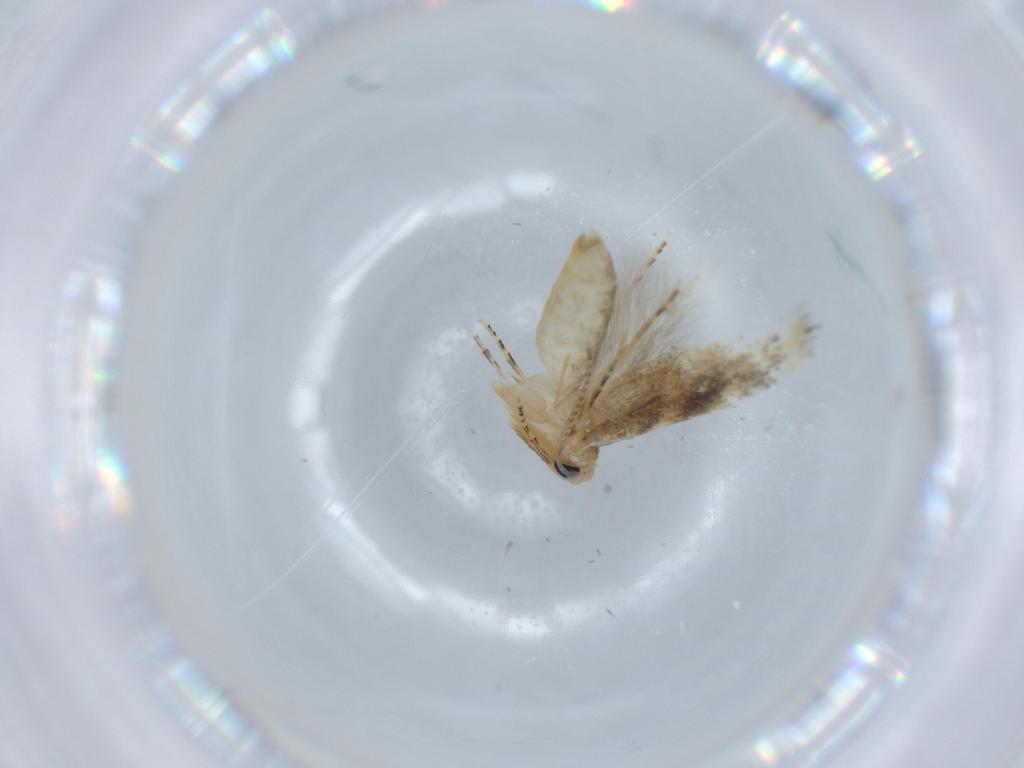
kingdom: Animalia
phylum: Arthropoda
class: Insecta
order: Lepidoptera
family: Bucculatricidae
